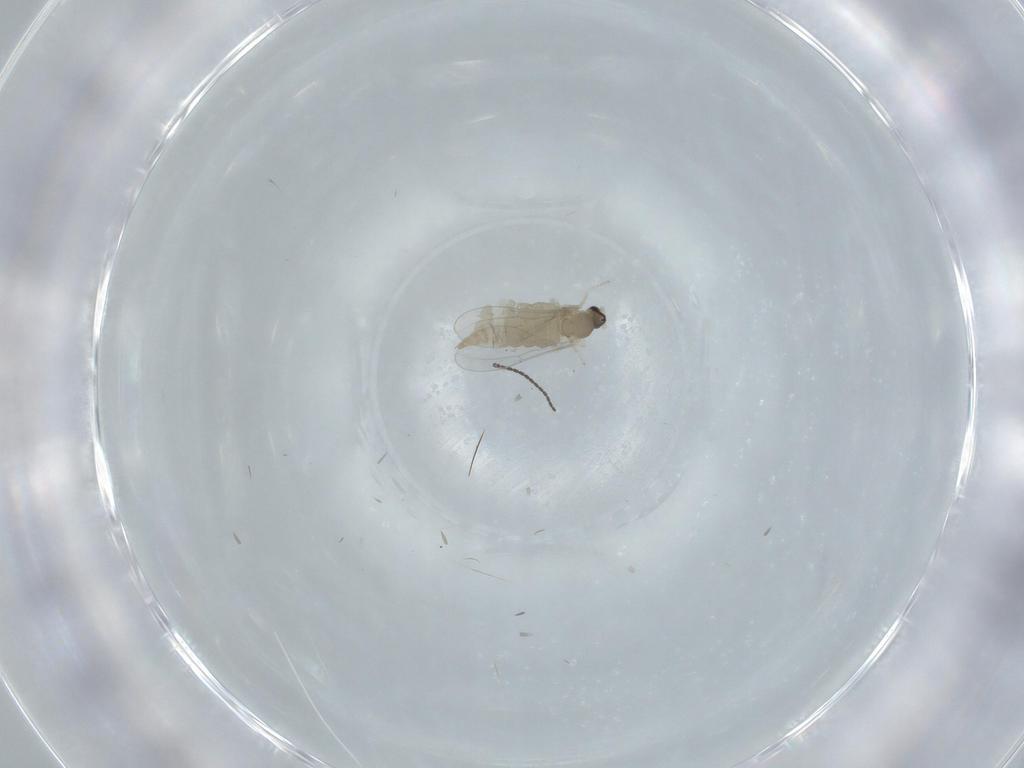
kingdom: Animalia
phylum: Arthropoda
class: Insecta
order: Diptera
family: Cecidomyiidae
